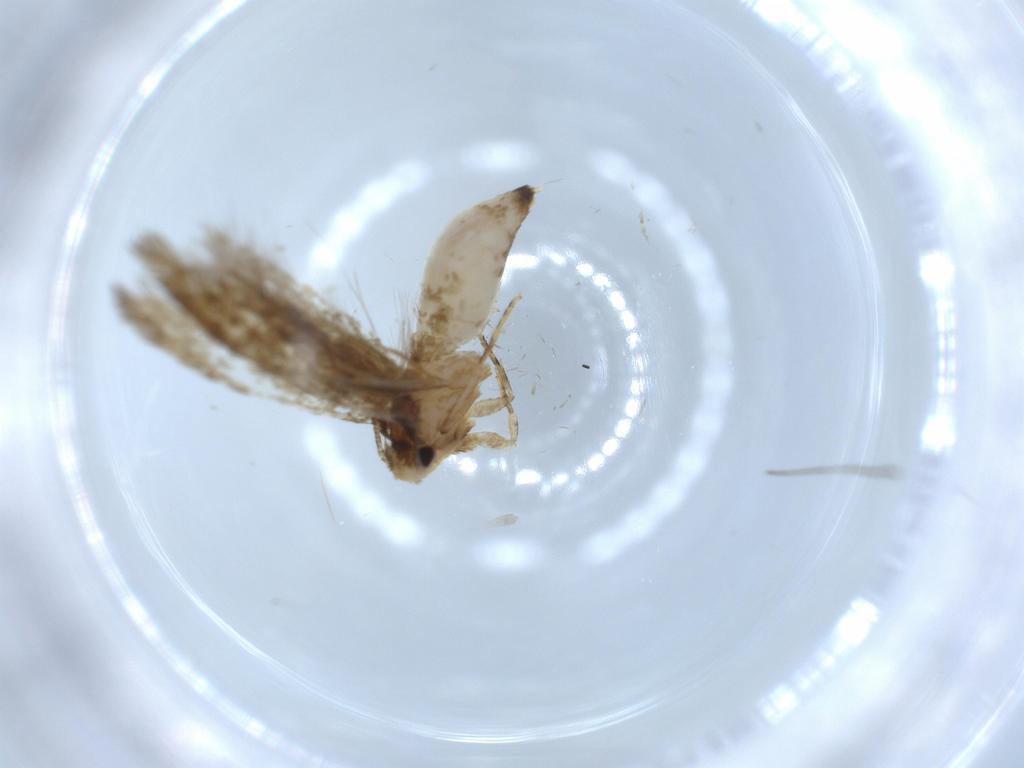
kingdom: Animalia
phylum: Arthropoda
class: Insecta
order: Lepidoptera
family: Tineidae
